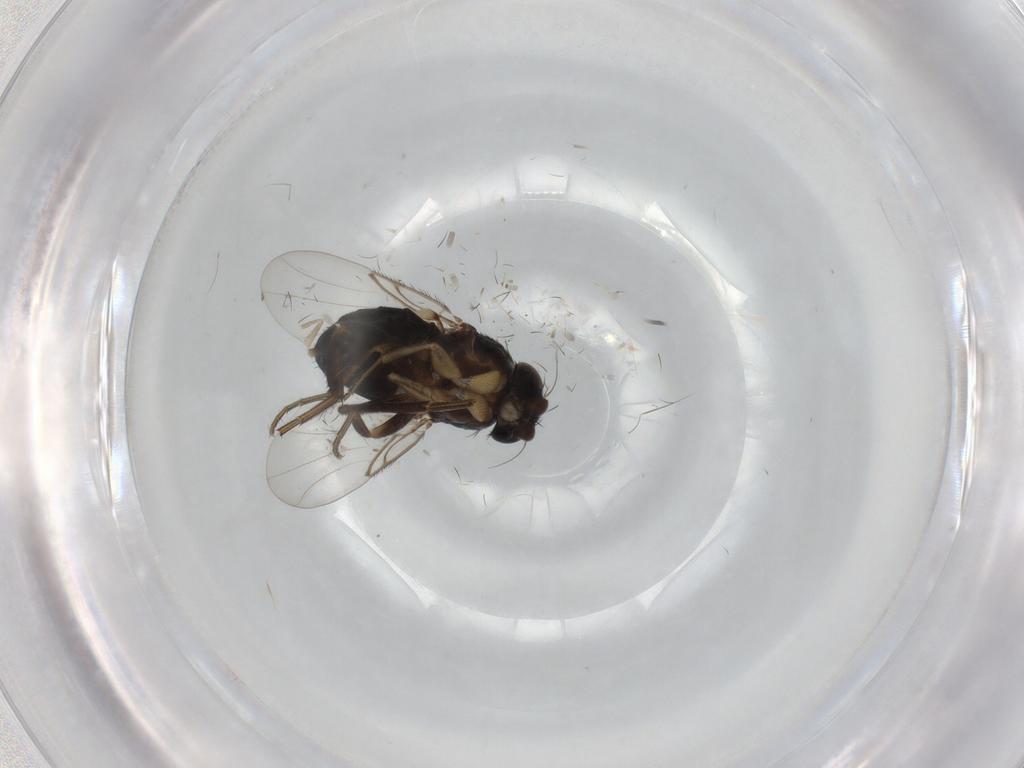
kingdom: Animalia
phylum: Arthropoda
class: Insecta
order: Diptera
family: Phoridae
